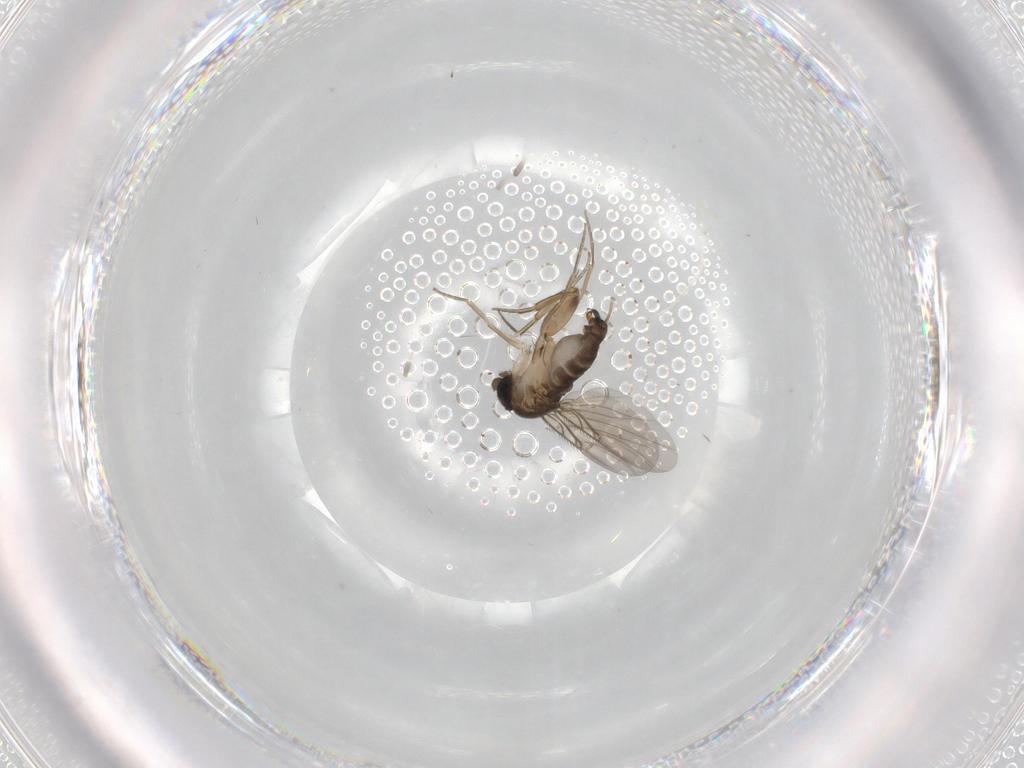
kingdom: Animalia
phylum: Arthropoda
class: Insecta
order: Diptera
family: Phoridae
